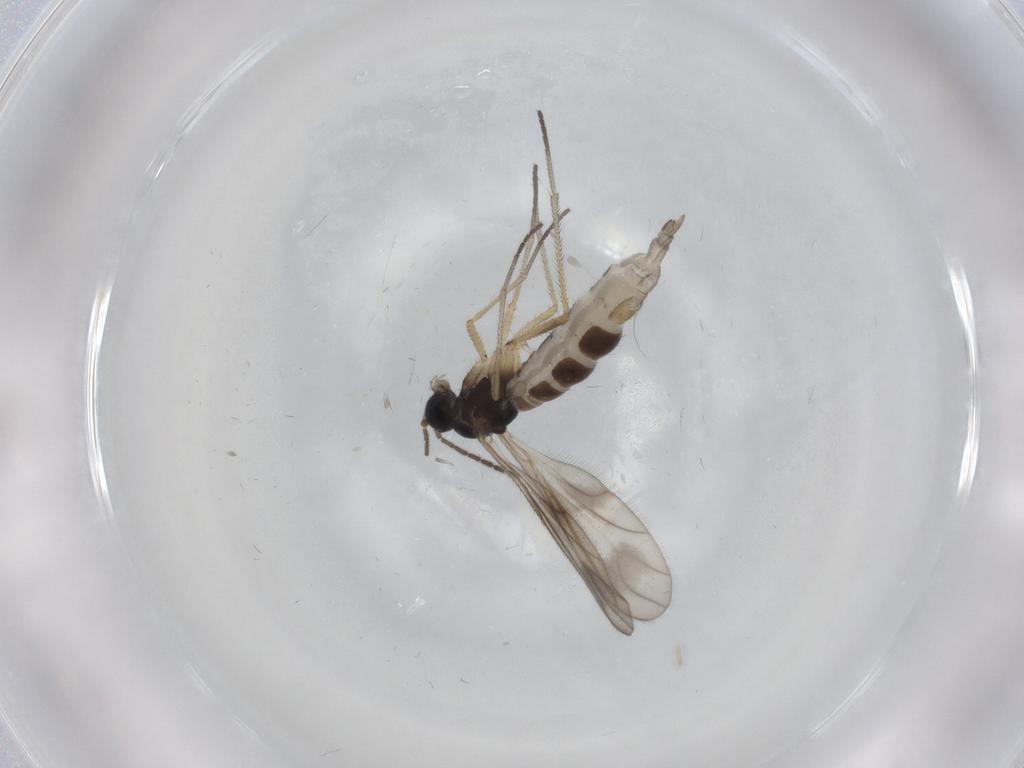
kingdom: Animalia
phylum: Arthropoda
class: Insecta
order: Diptera
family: Sciaridae
